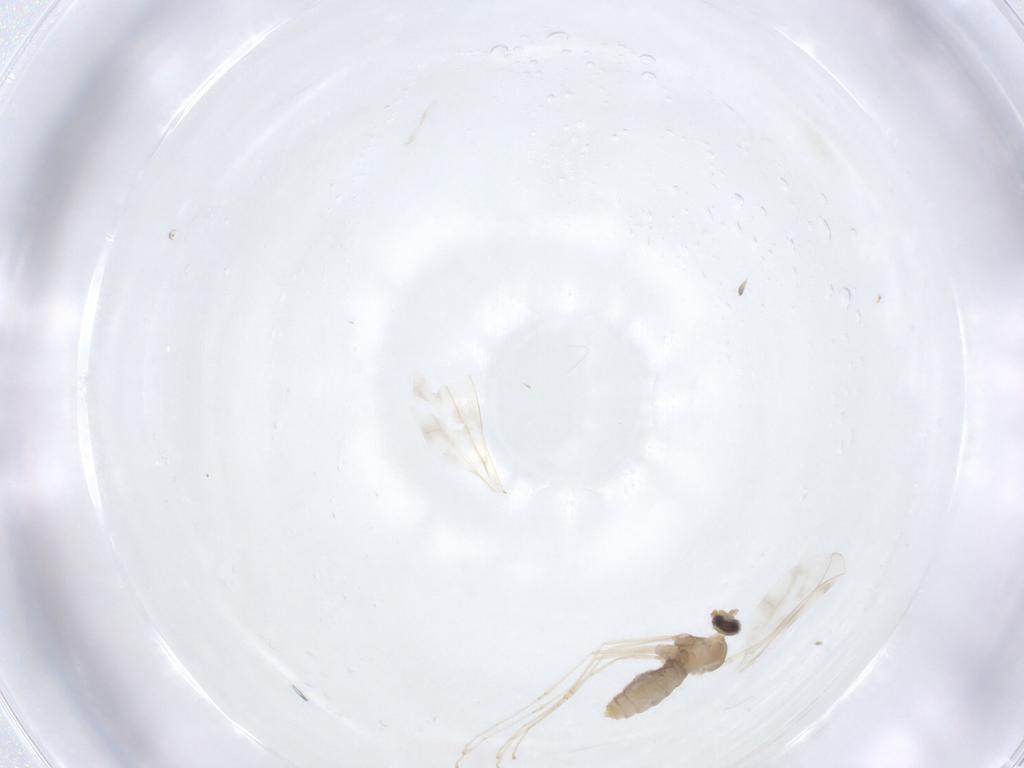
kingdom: Animalia
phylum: Arthropoda
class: Insecta
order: Diptera
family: Cecidomyiidae
